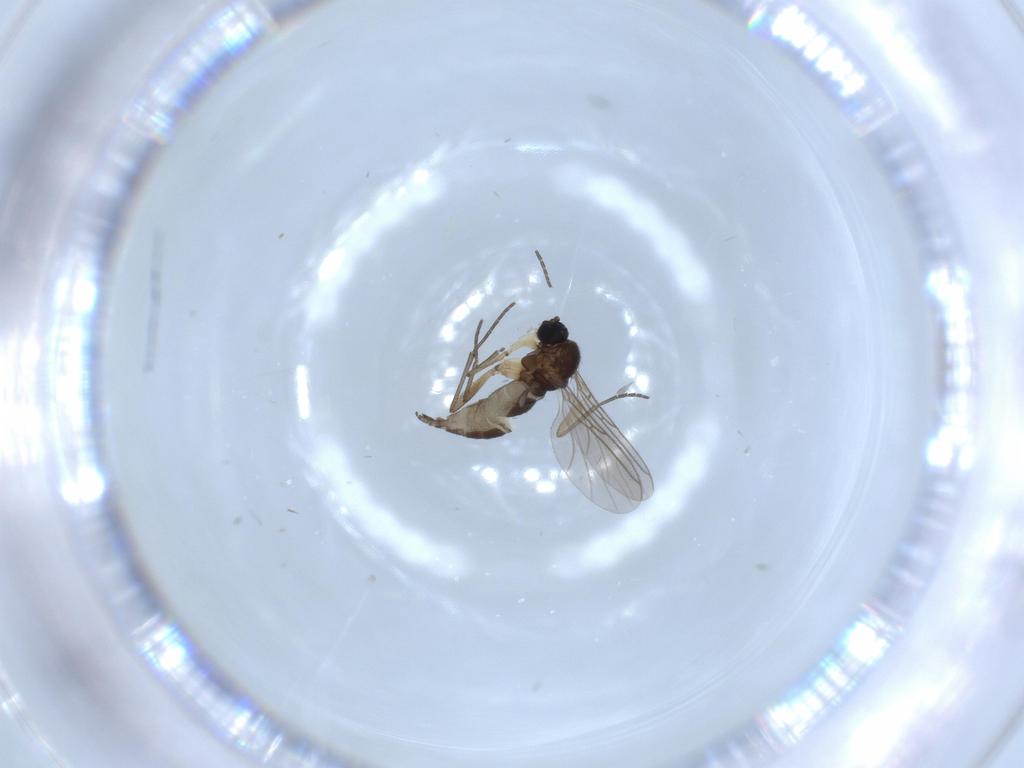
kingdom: Animalia
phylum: Arthropoda
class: Insecta
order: Diptera
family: Sciaridae
